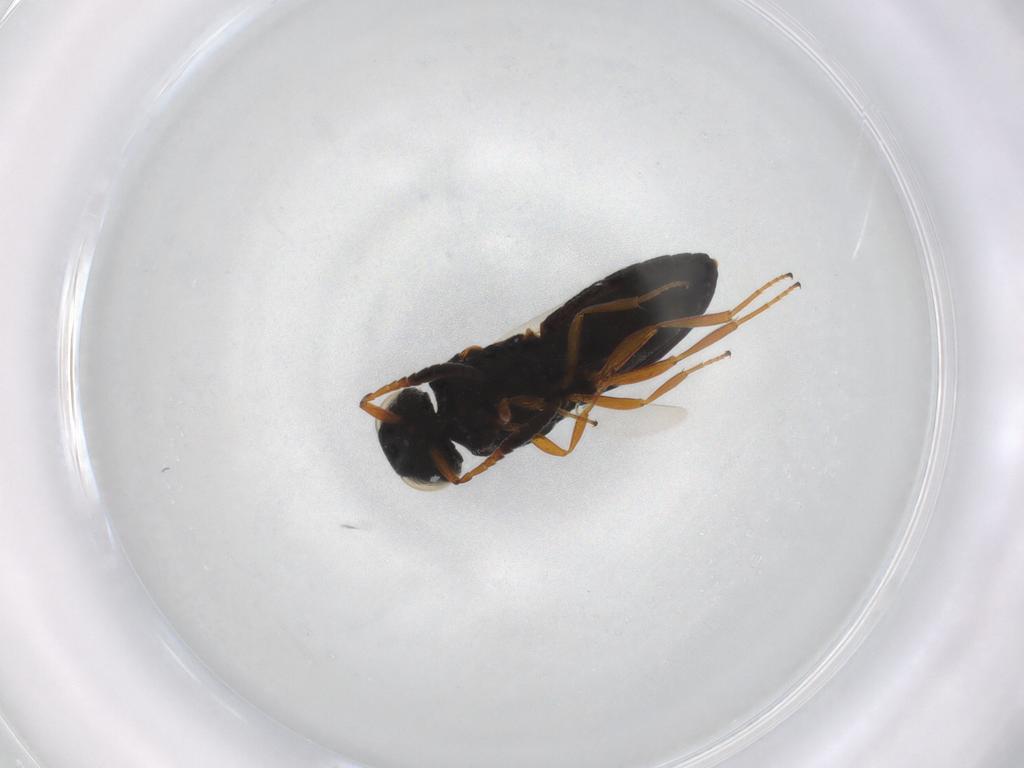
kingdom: Animalia
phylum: Arthropoda
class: Insecta
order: Hymenoptera
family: Scelionidae
